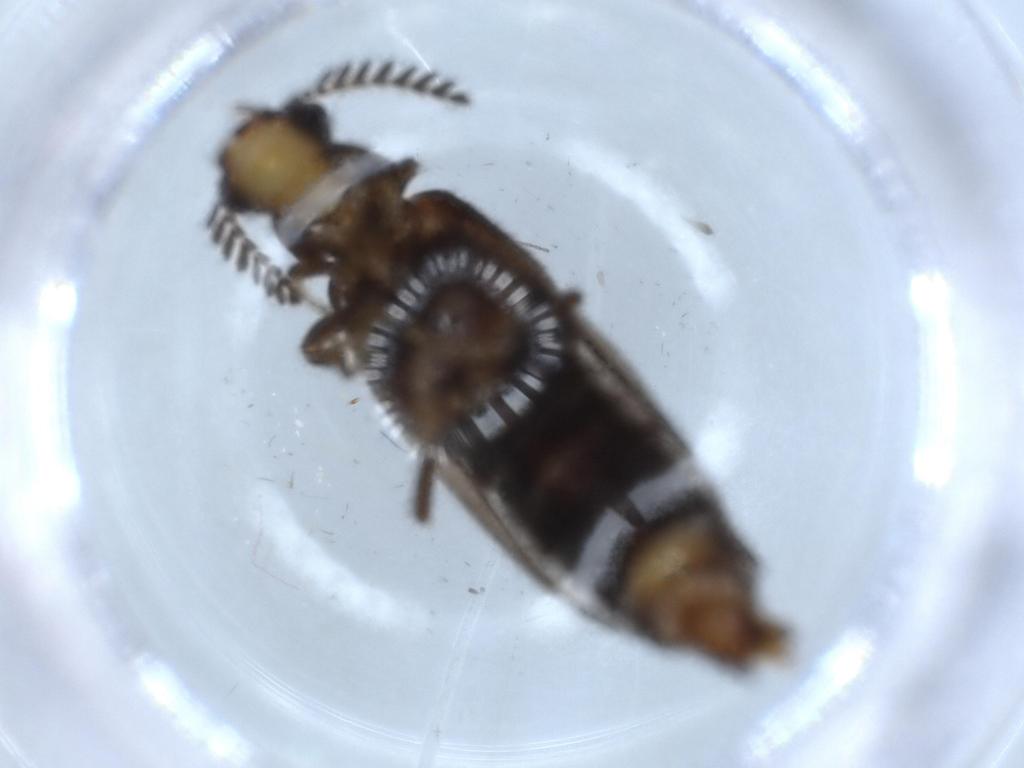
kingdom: Animalia
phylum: Arthropoda
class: Insecta
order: Coleoptera
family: Phengodidae
